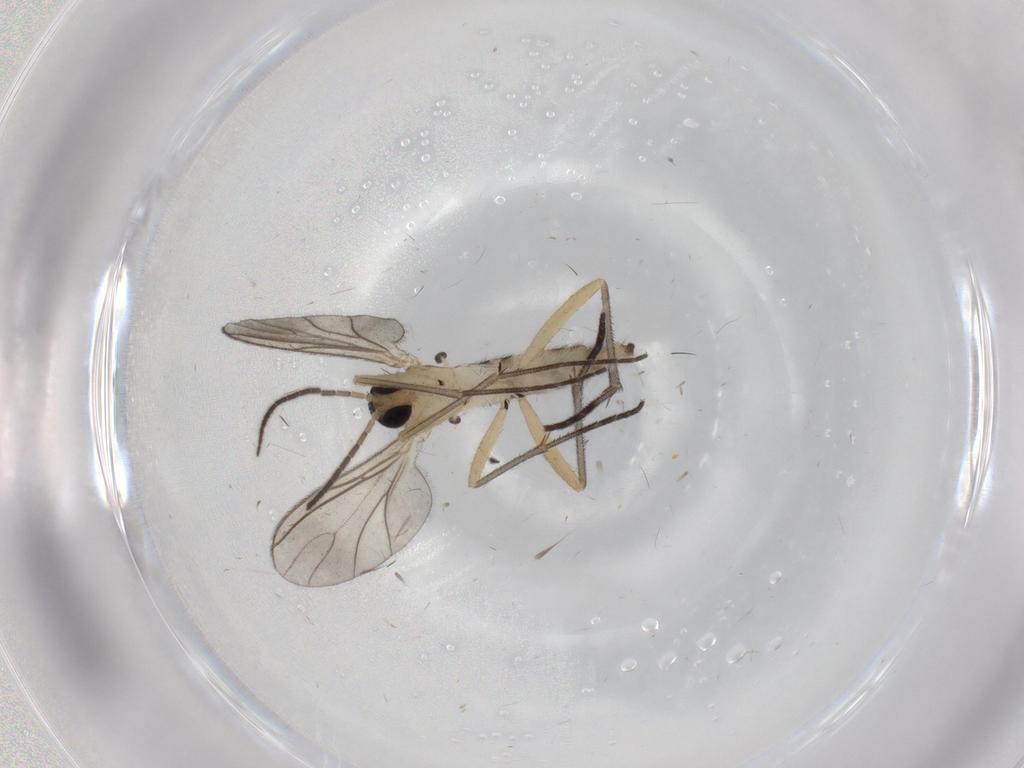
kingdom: Animalia
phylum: Arthropoda
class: Insecta
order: Diptera
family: Sciaridae
